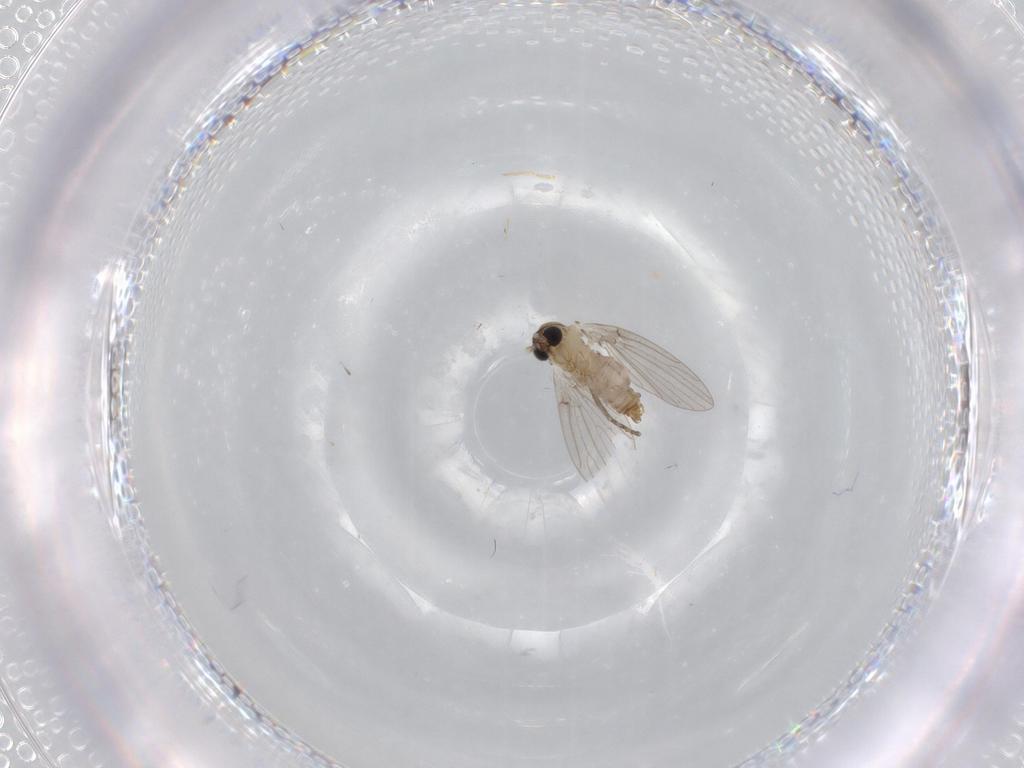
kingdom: Animalia
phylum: Arthropoda
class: Insecta
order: Diptera
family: Psychodidae
